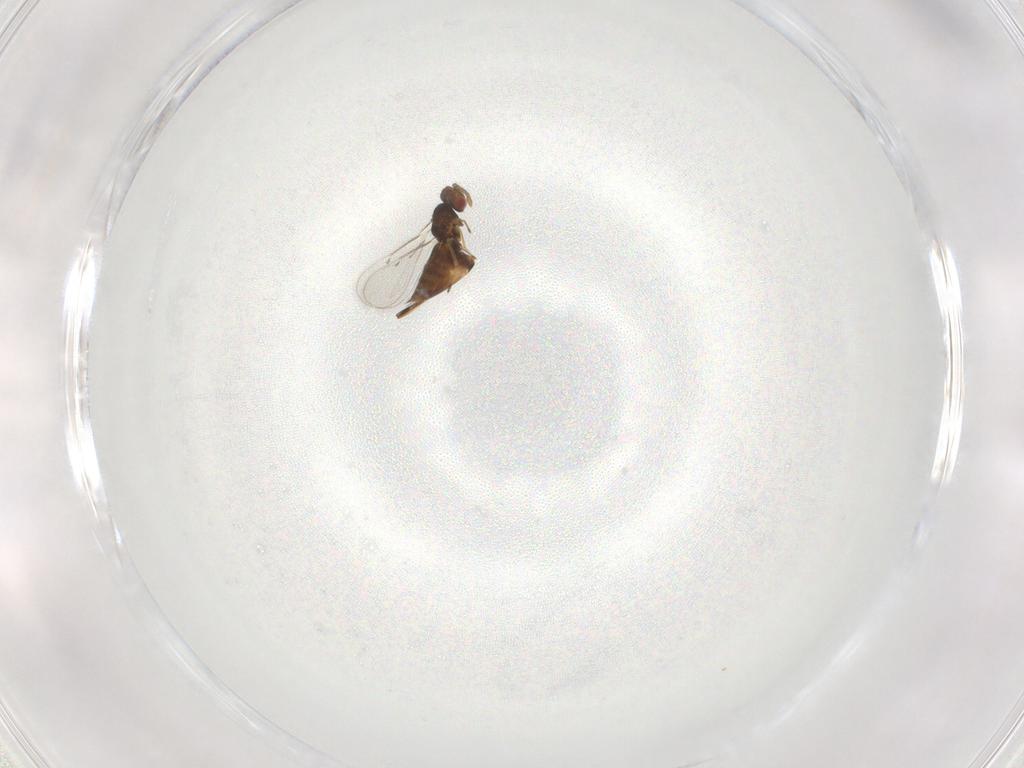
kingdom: Animalia
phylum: Arthropoda
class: Insecta
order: Hymenoptera
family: Eulophidae
